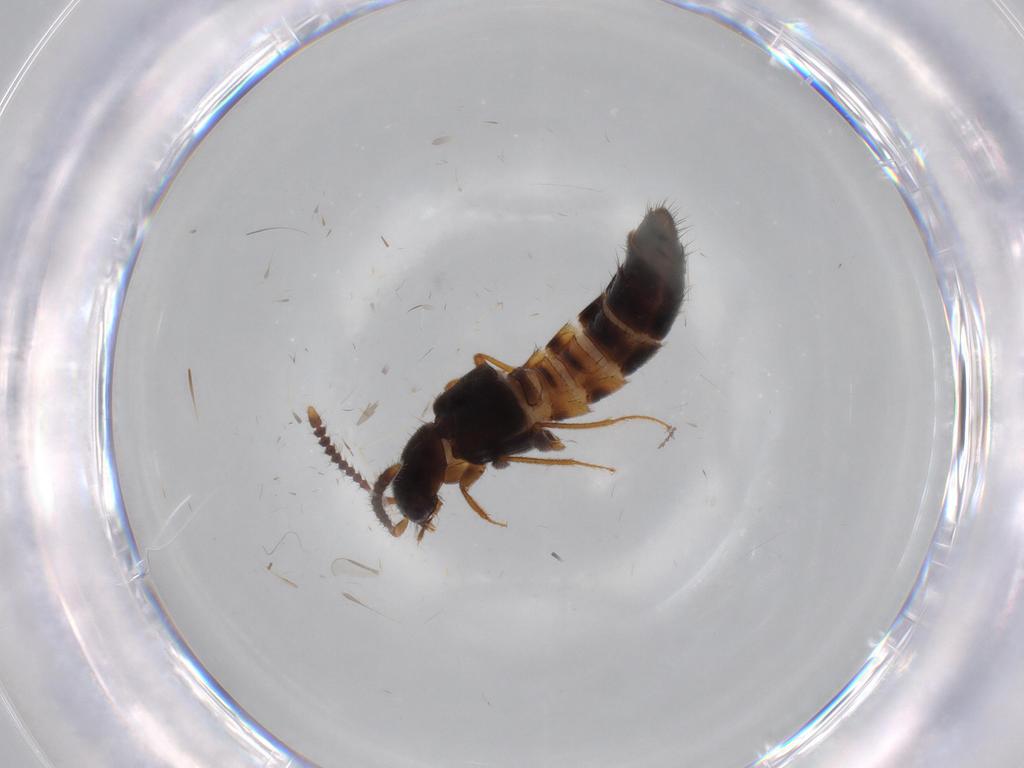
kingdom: Animalia
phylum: Arthropoda
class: Insecta
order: Coleoptera
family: Staphylinidae
